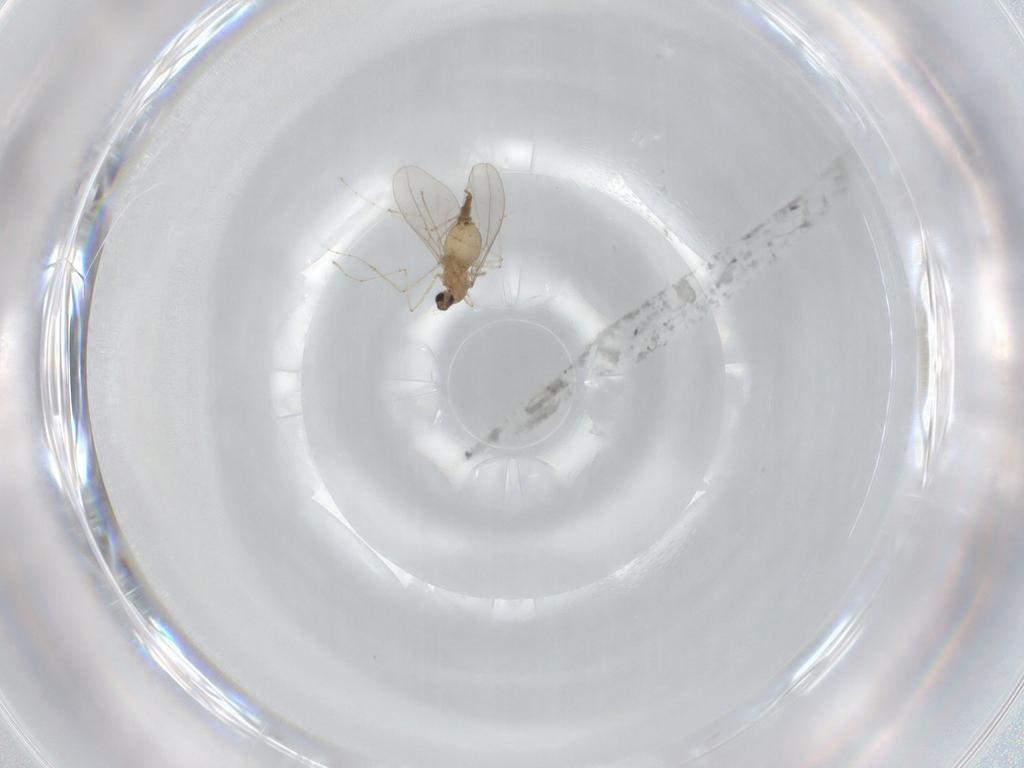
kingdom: Animalia
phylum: Arthropoda
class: Insecta
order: Diptera
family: Cecidomyiidae
